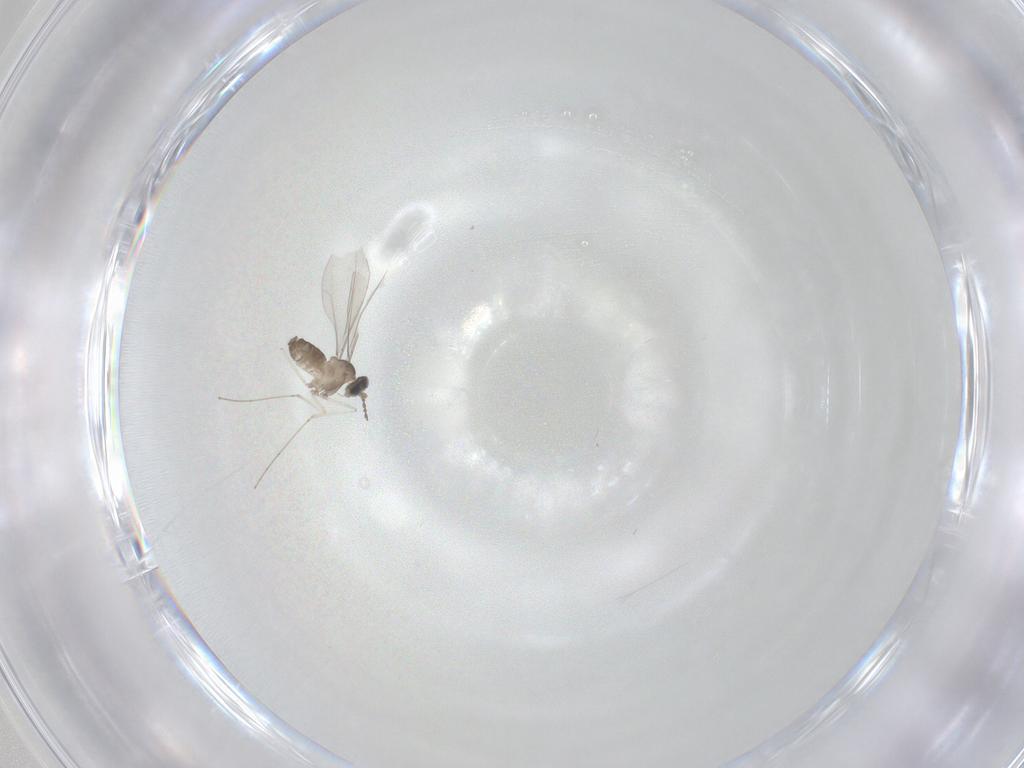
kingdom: Animalia
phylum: Arthropoda
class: Insecta
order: Diptera
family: Cecidomyiidae
